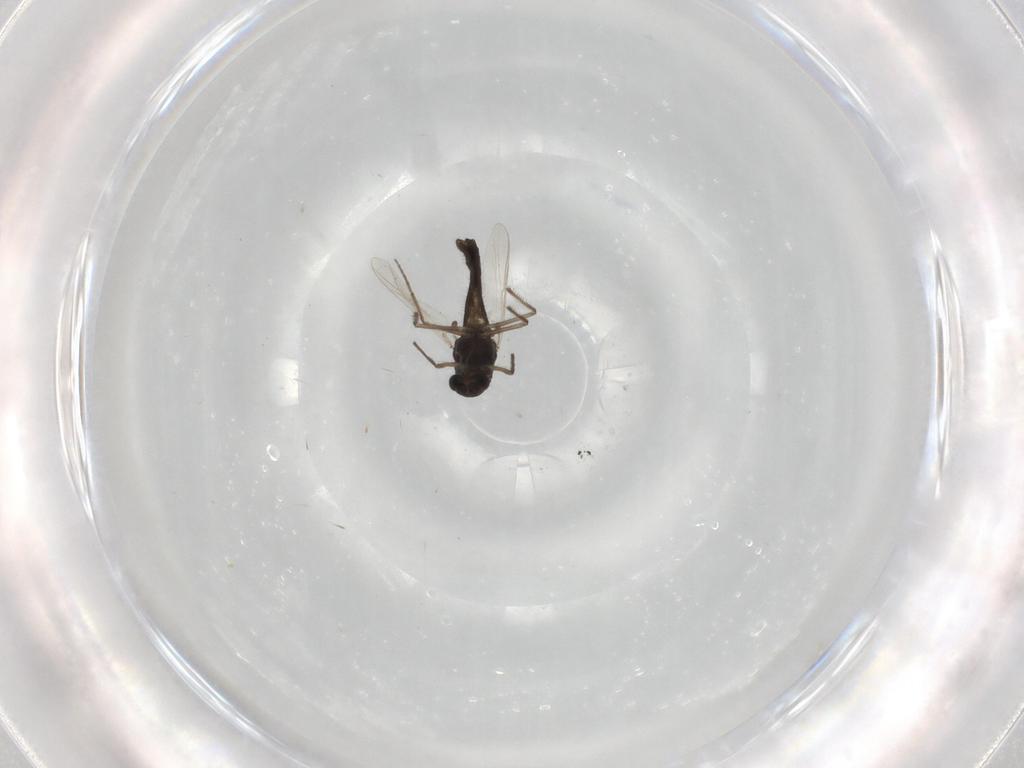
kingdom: Animalia
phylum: Arthropoda
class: Insecta
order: Diptera
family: Chironomidae
